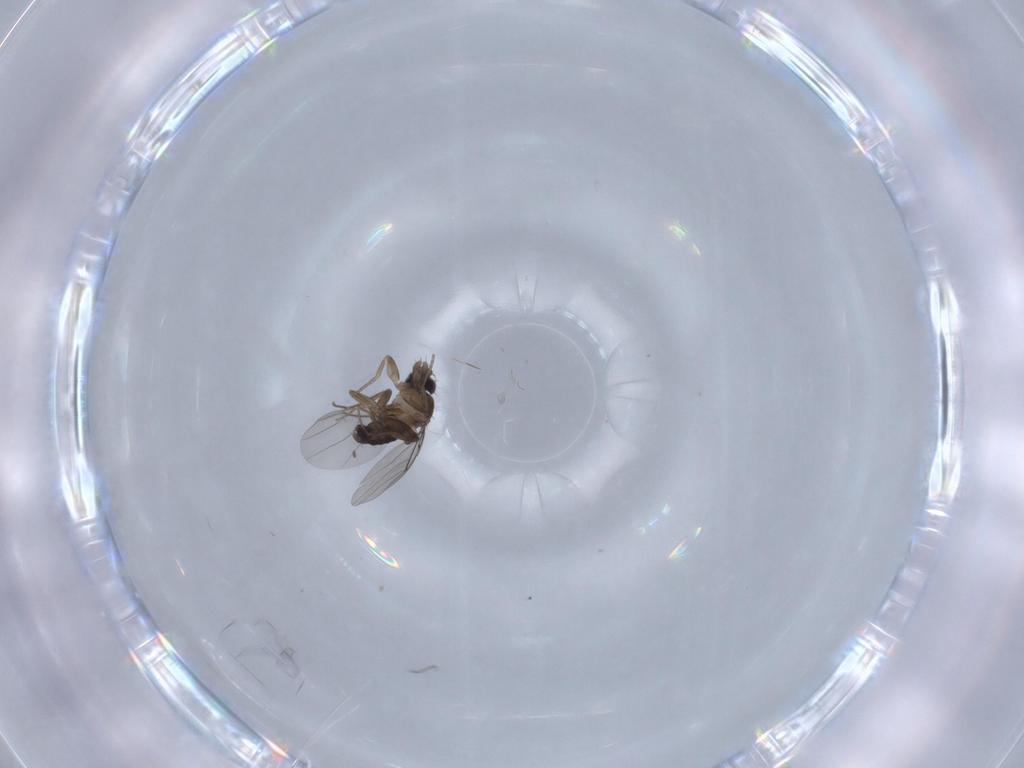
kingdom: Animalia
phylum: Arthropoda
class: Insecta
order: Diptera
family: Phoridae
